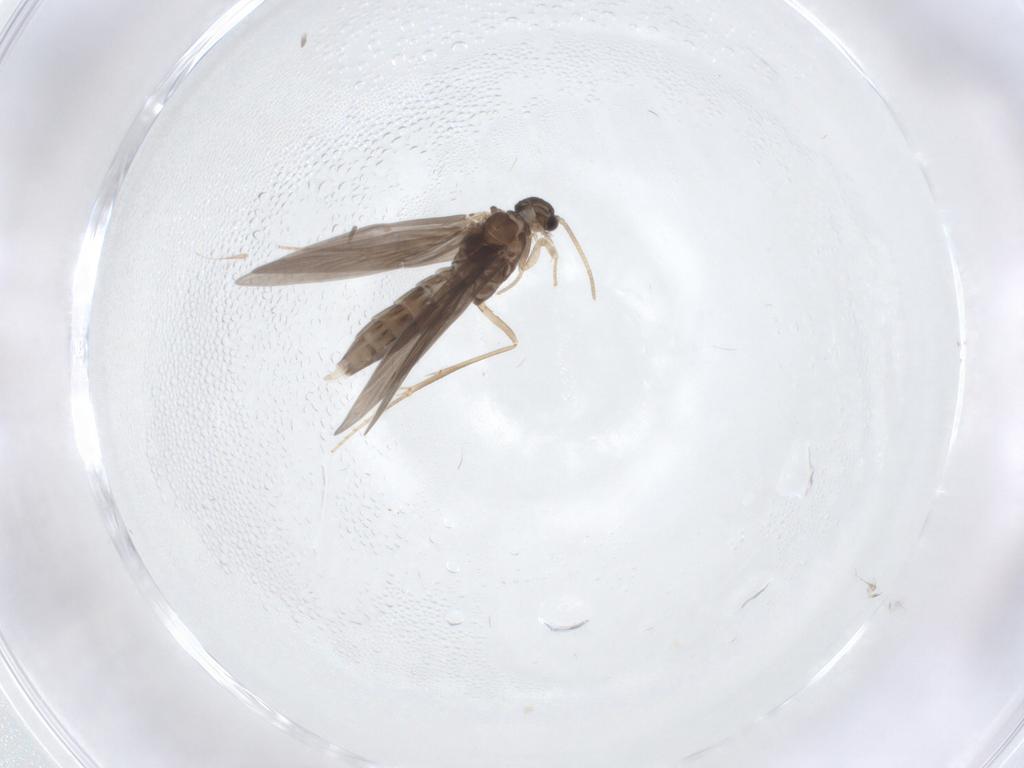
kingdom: Animalia
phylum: Arthropoda
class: Insecta
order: Trichoptera
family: Hydroptilidae
